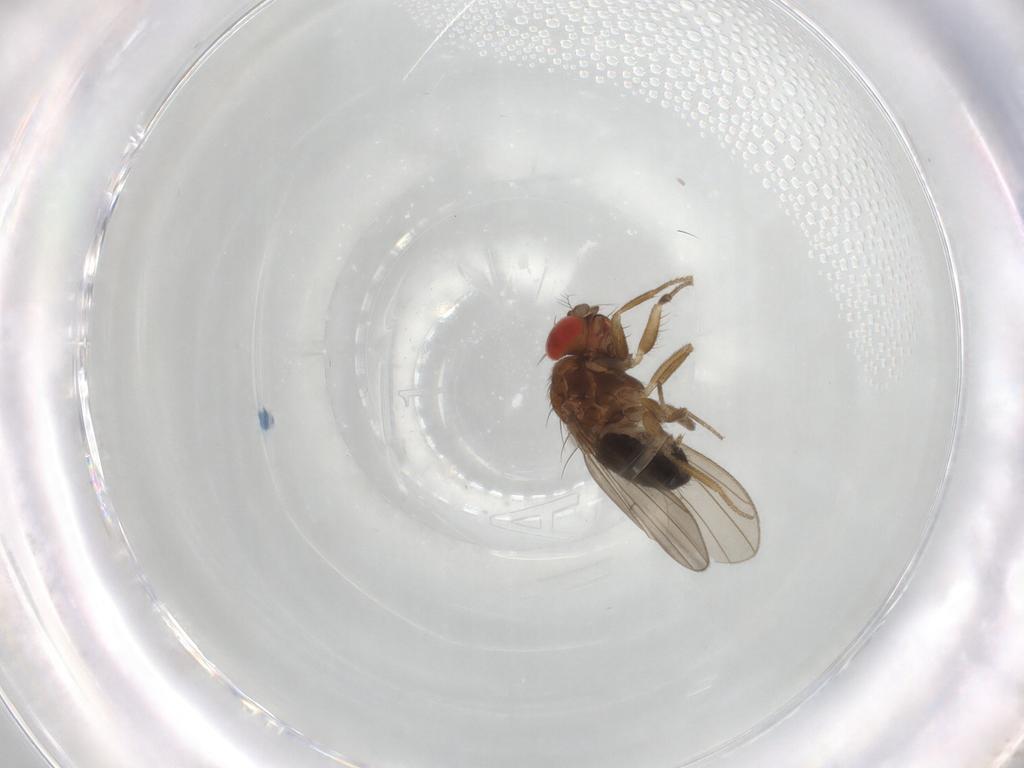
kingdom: Animalia
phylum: Arthropoda
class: Insecta
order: Diptera
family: Drosophilidae
